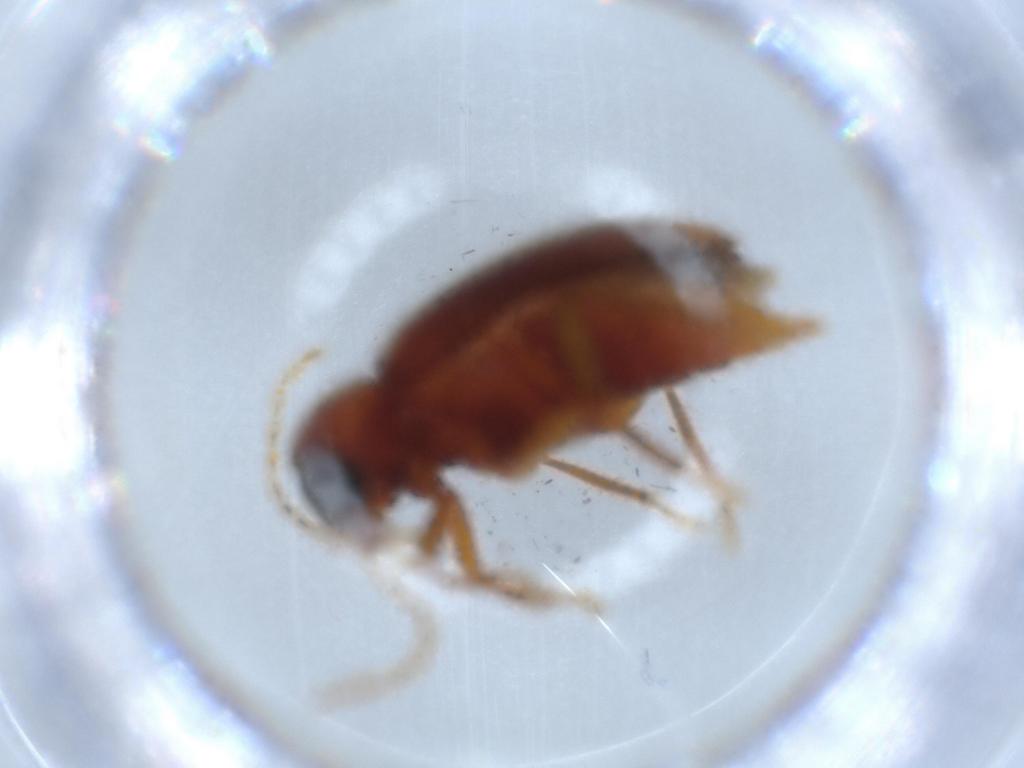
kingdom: Animalia
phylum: Arthropoda
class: Insecta
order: Coleoptera
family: Ptilodactylidae
